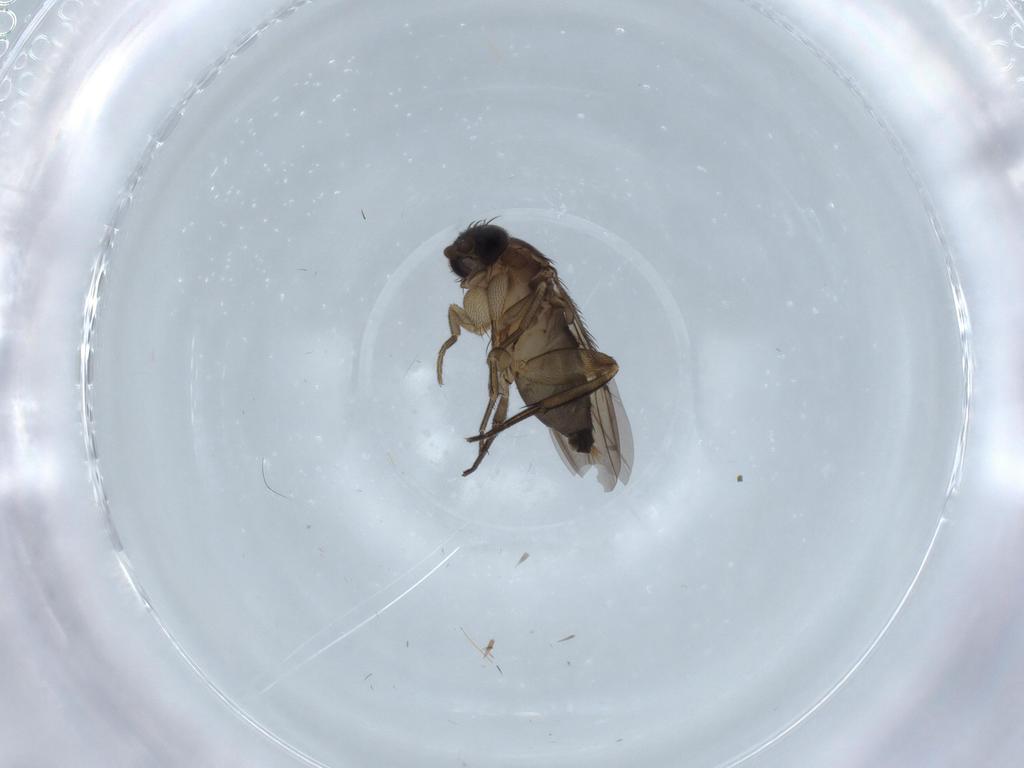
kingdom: Animalia
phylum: Arthropoda
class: Insecta
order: Diptera
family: Phoridae
